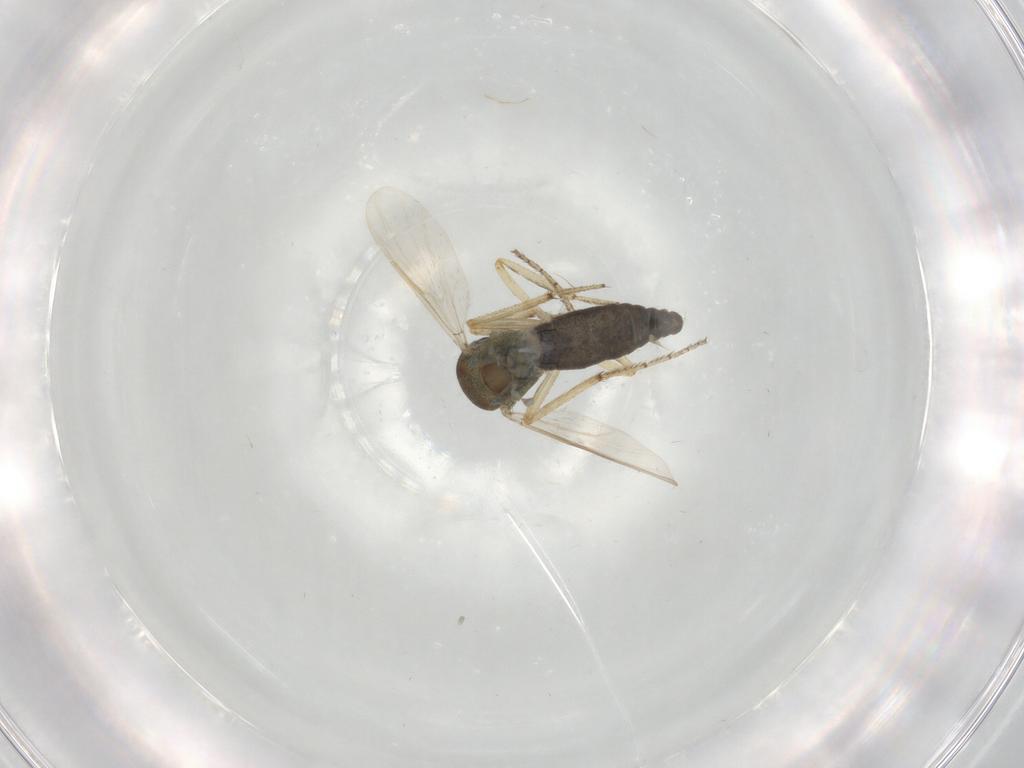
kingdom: Animalia
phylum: Arthropoda
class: Insecta
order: Diptera
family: Ceratopogonidae
